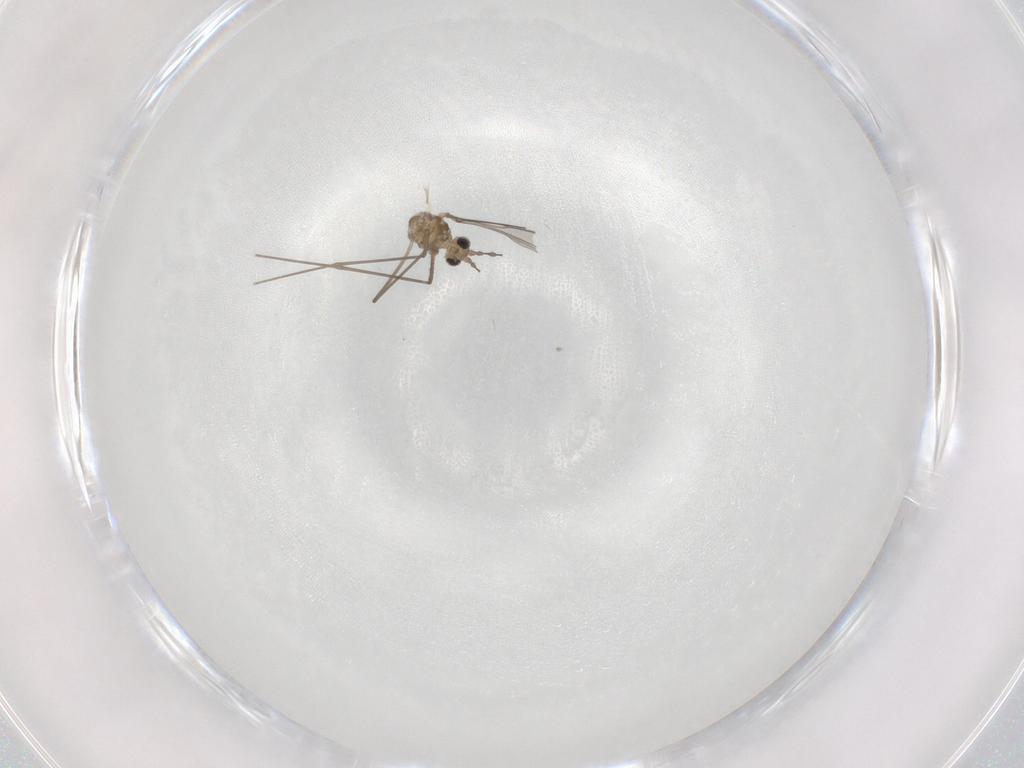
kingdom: Animalia
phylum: Arthropoda
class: Insecta
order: Diptera
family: Cecidomyiidae
